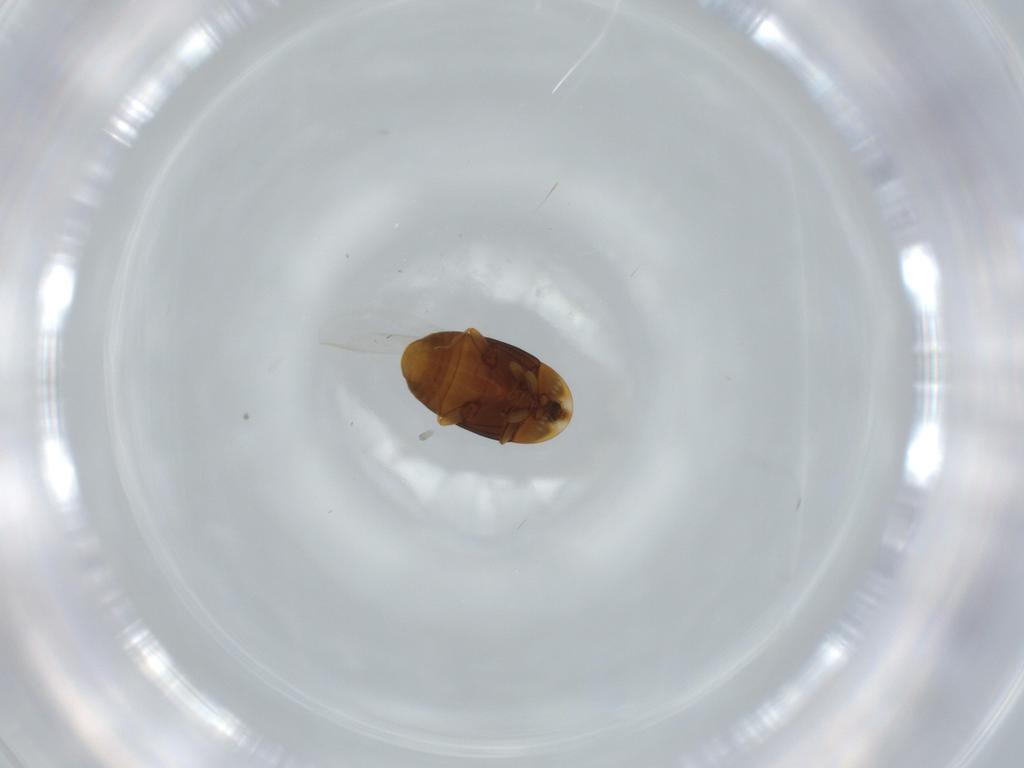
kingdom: Animalia
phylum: Arthropoda
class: Insecta
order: Coleoptera
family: Corylophidae
